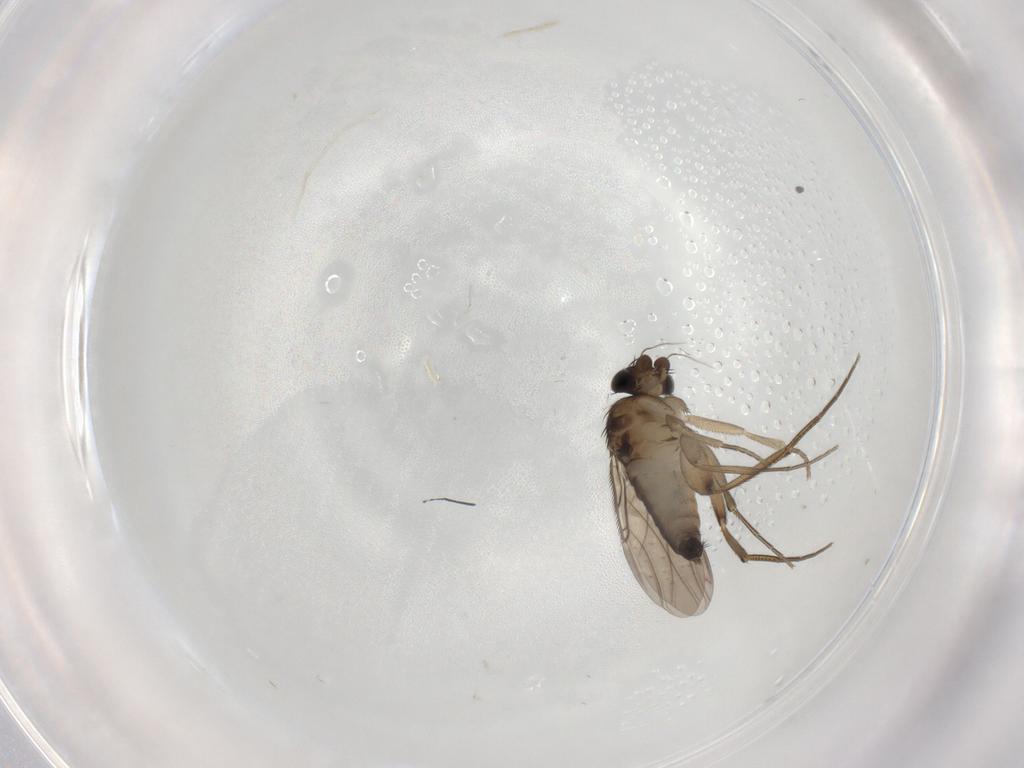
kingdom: Animalia
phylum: Arthropoda
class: Insecta
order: Diptera
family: Phoridae
